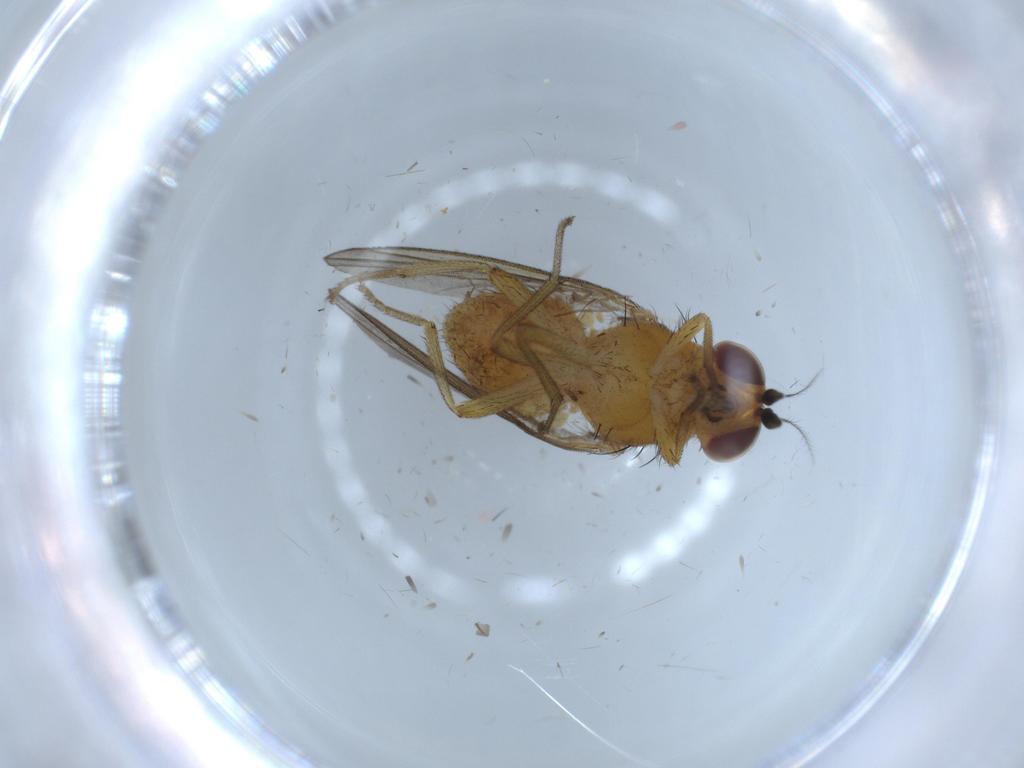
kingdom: Animalia
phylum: Arthropoda
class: Insecta
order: Diptera
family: Lauxaniidae
